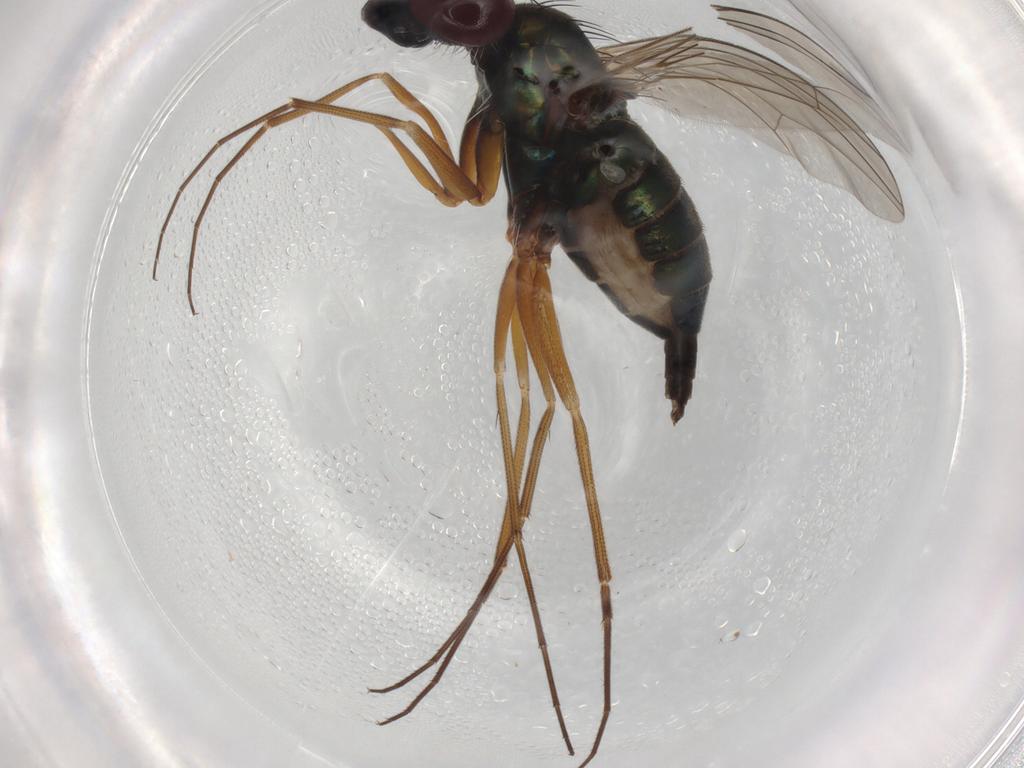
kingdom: Animalia
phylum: Arthropoda
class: Insecta
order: Diptera
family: Dolichopodidae
